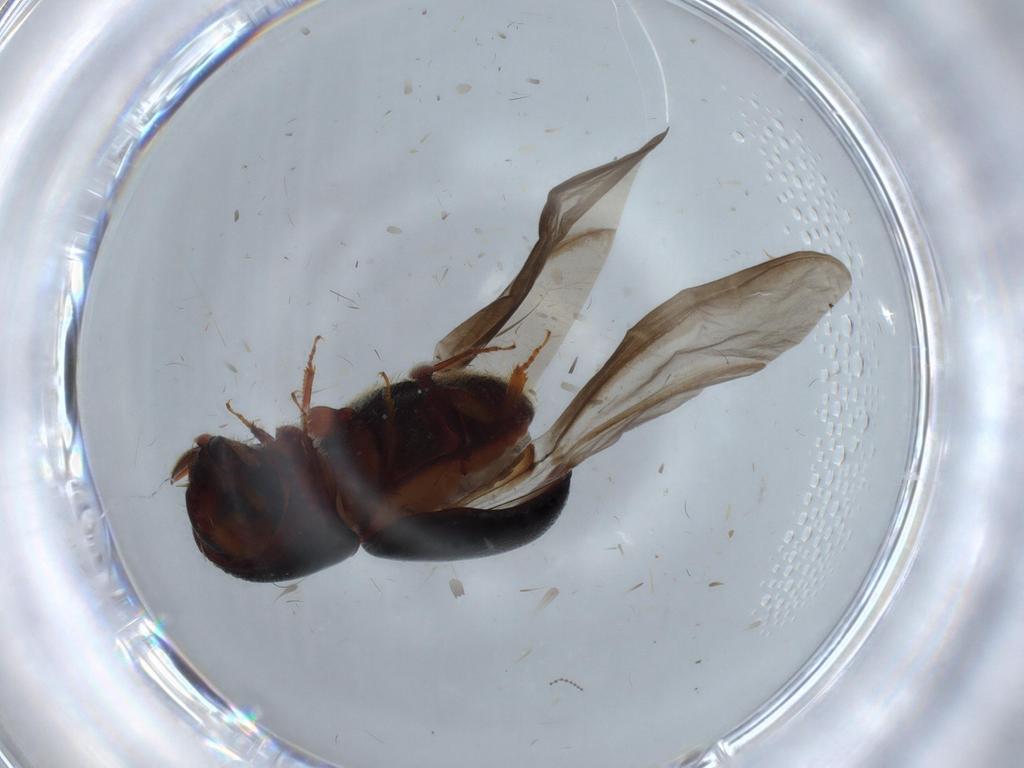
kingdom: Animalia
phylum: Arthropoda
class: Insecta
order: Coleoptera
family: Curculionidae
